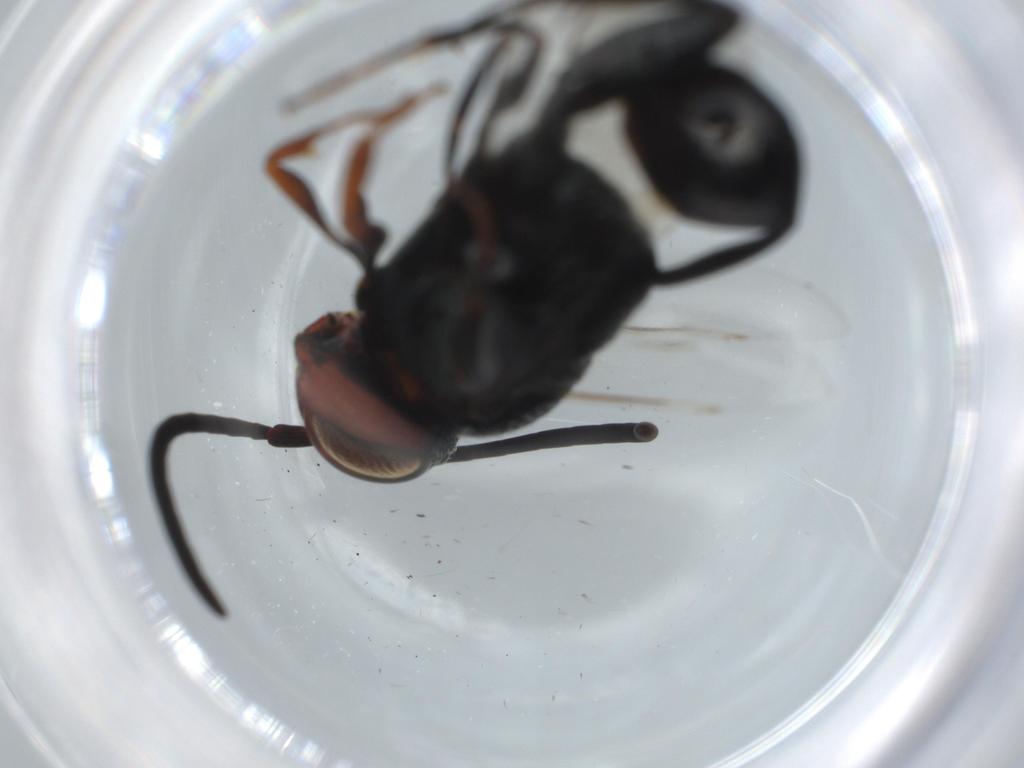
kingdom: Animalia
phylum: Arthropoda
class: Insecta
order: Hymenoptera
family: Evaniidae
